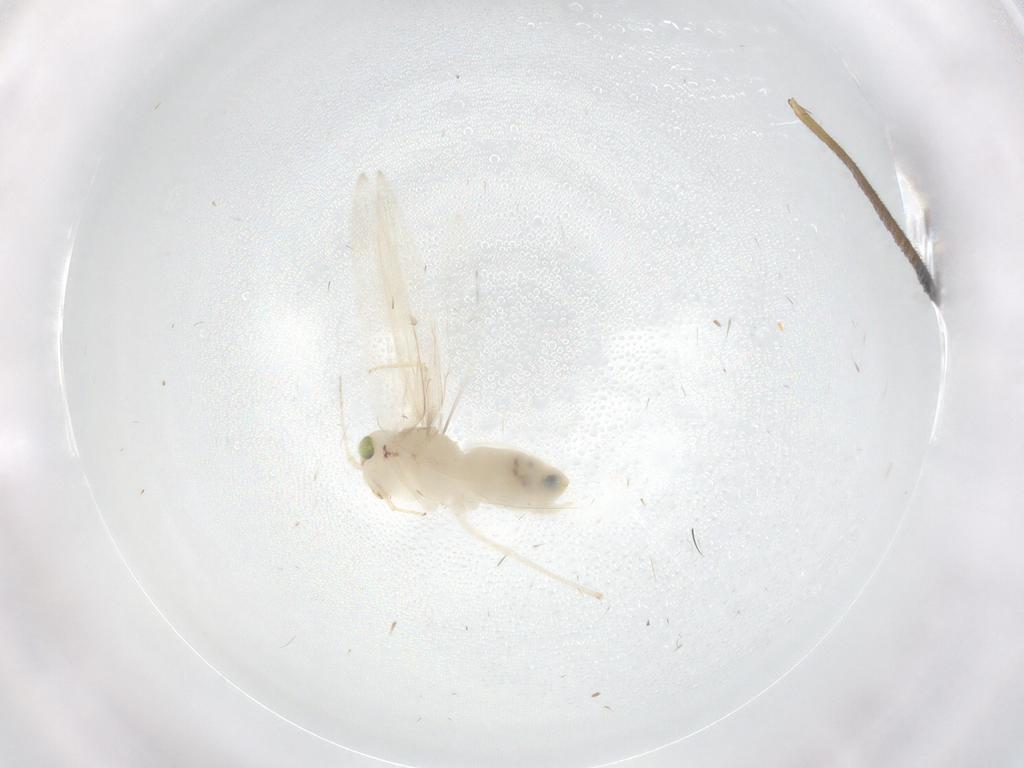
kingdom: Animalia
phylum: Arthropoda
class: Insecta
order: Psocodea
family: Lepidopsocidae
